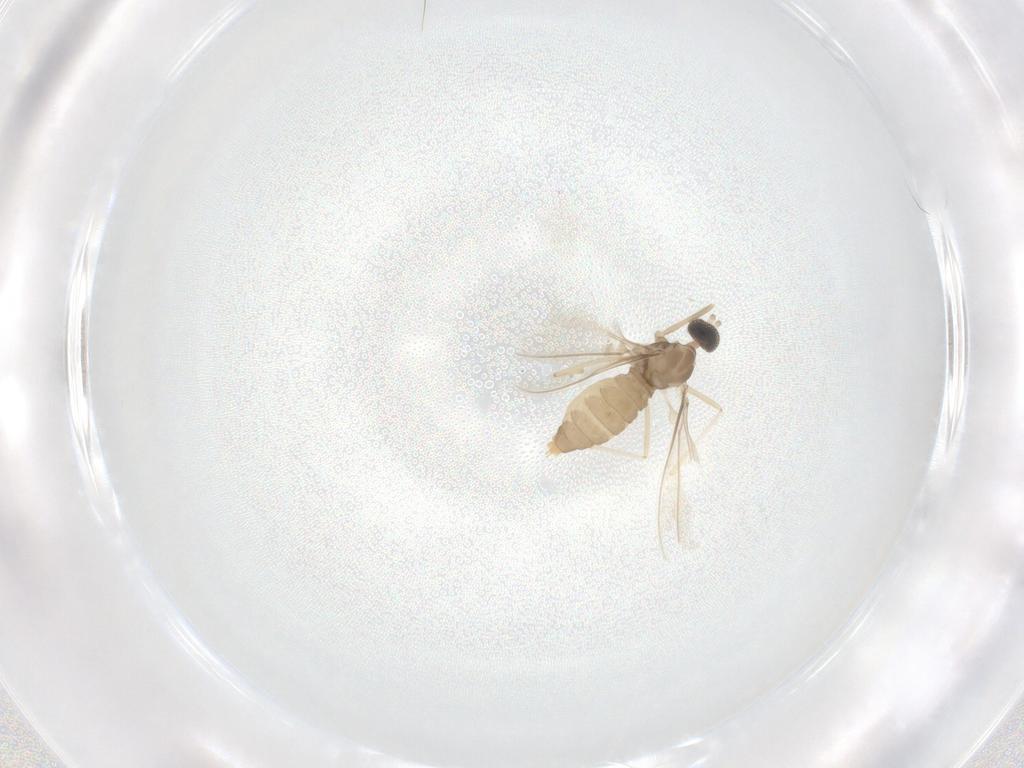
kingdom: Animalia
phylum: Arthropoda
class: Insecta
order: Diptera
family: Cecidomyiidae
